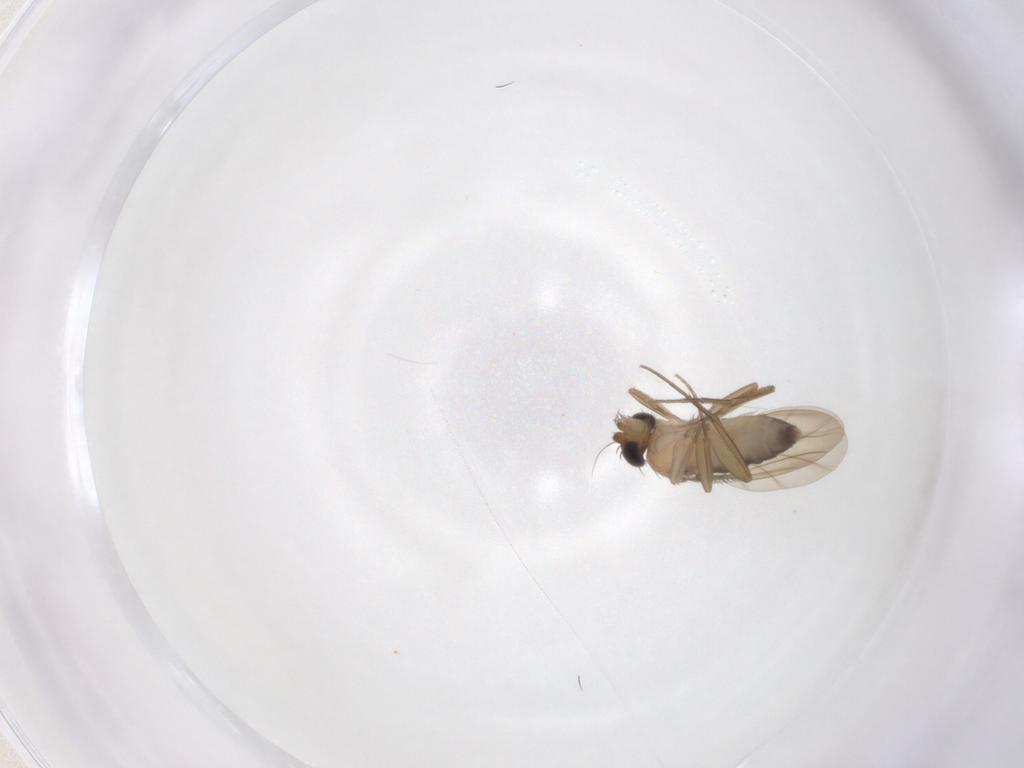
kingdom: Animalia
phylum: Arthropoda
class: Insecta
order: Diptera
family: Phoridae
